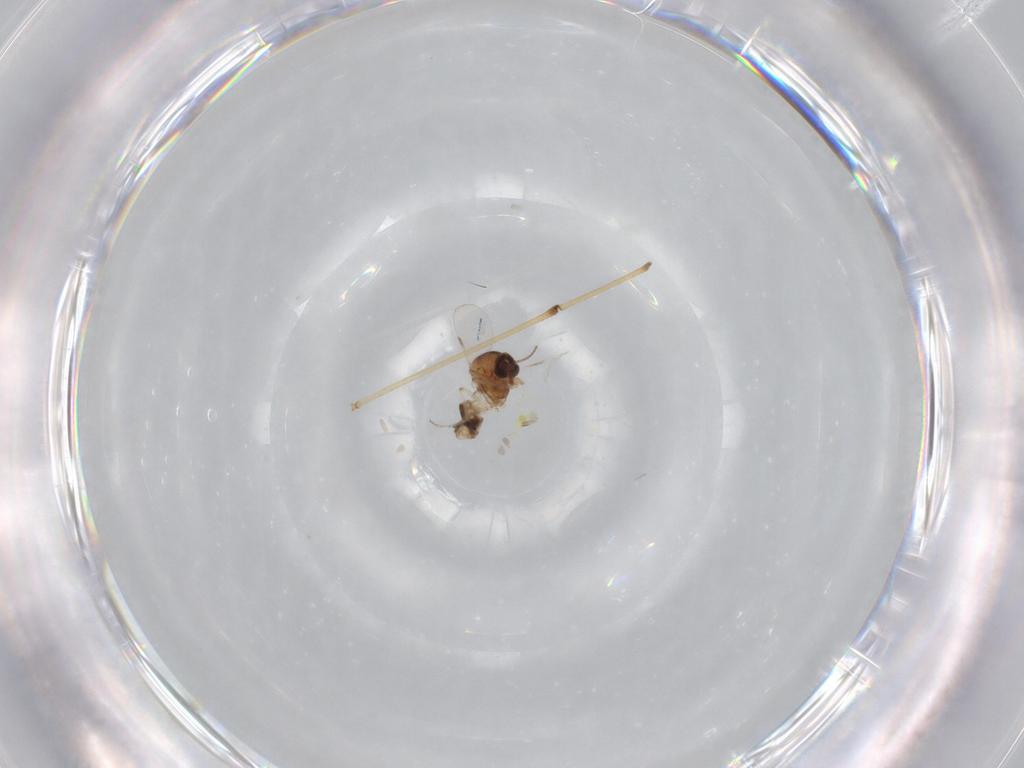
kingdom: Animalia
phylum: Arthropoda
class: Insecta
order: Diptera
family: Ceratopogonidae
